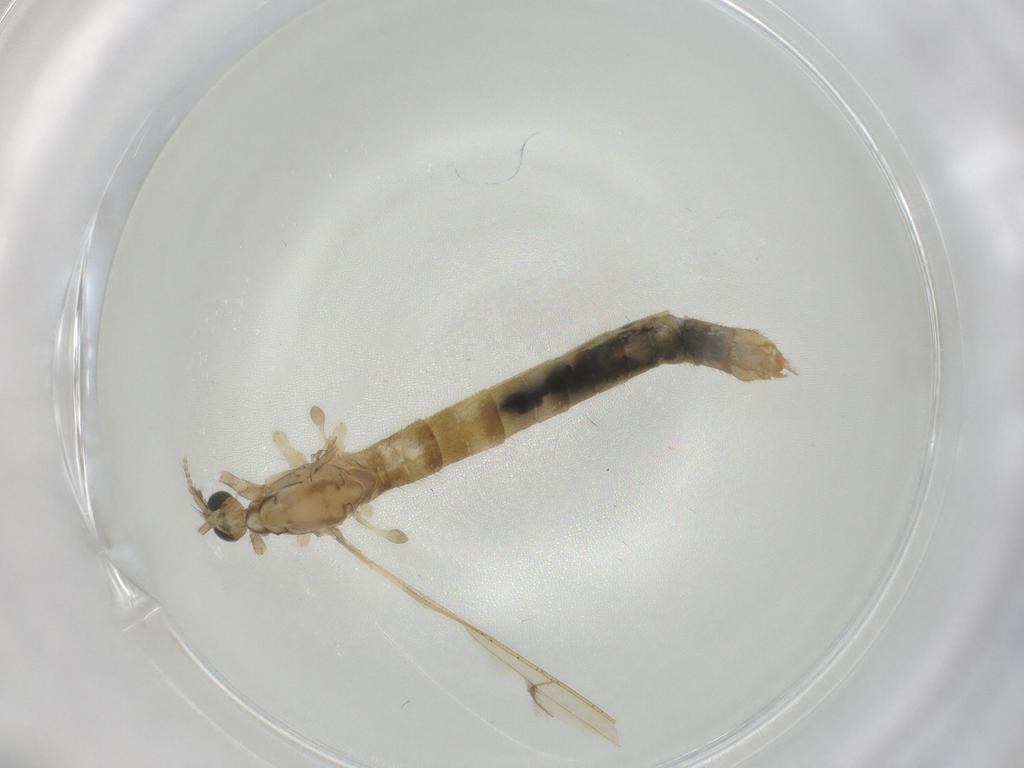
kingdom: Animalia
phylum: Arthropoda
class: Insecta
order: Diptera
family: Limoniidae
